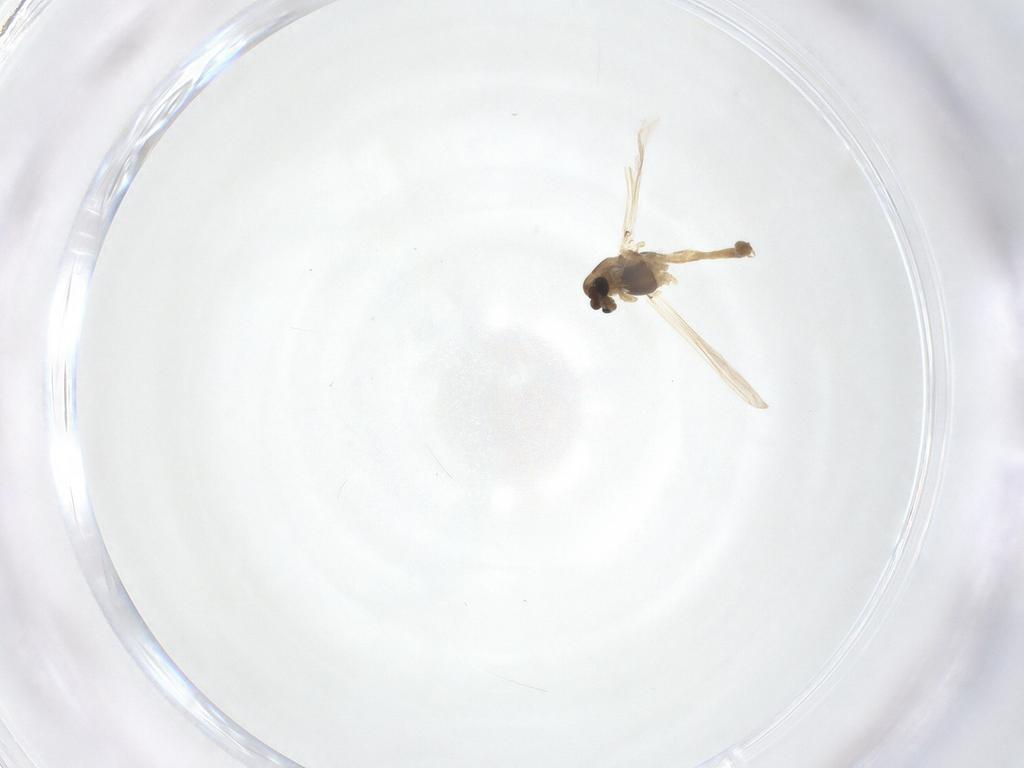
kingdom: Animalia
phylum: Arthropoda
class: Insecta
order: Diptera
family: Chironomidae
